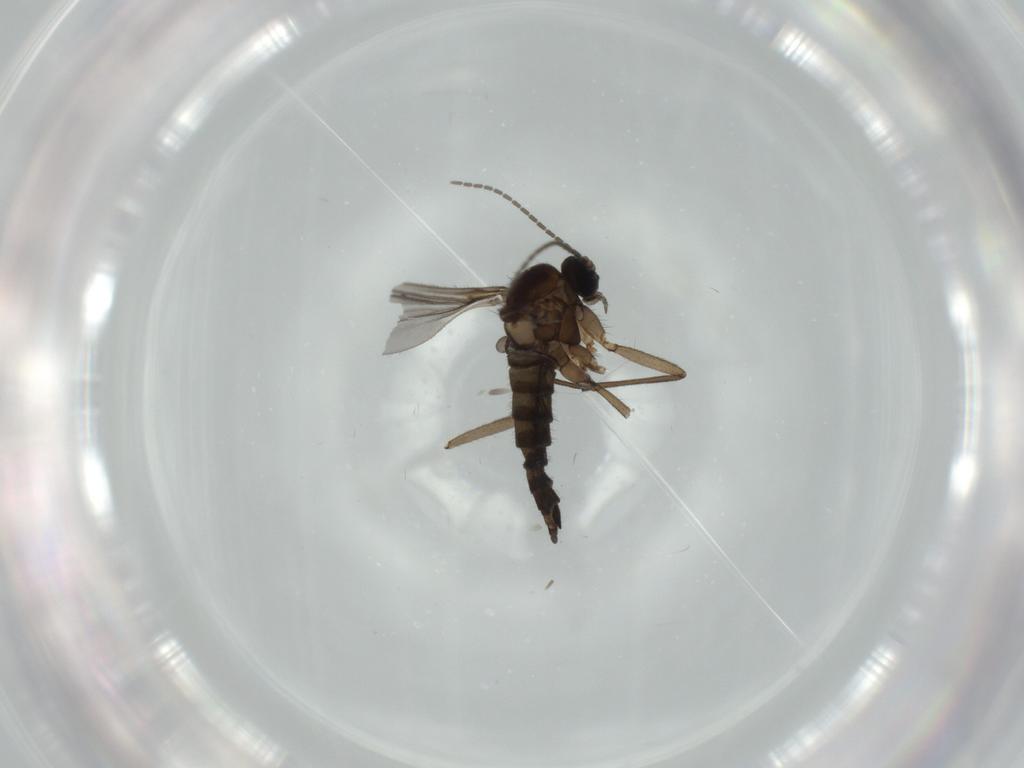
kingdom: Animalia
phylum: Arthropoda
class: Insecta
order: Diptera
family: Sciaridae
